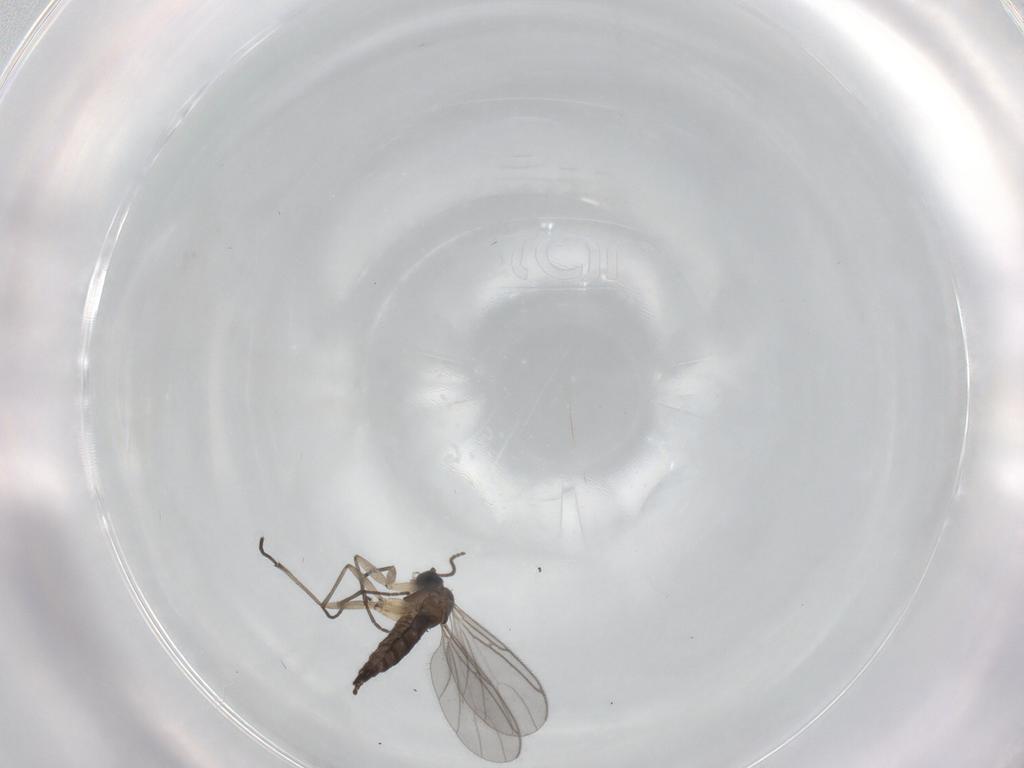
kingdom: Animalia
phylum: Arthropoda
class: Insecta
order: Diptera
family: Sciaridae
